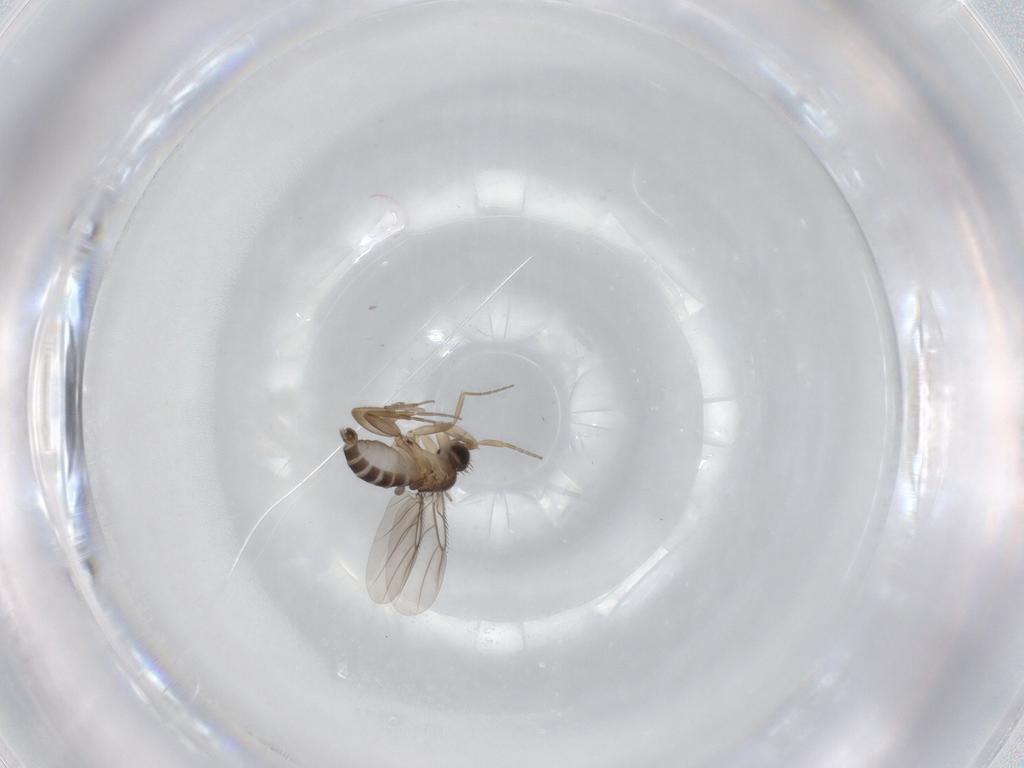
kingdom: Animalia
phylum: Arthropoda
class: Insecta
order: Diptera
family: Cecidomyiidae
